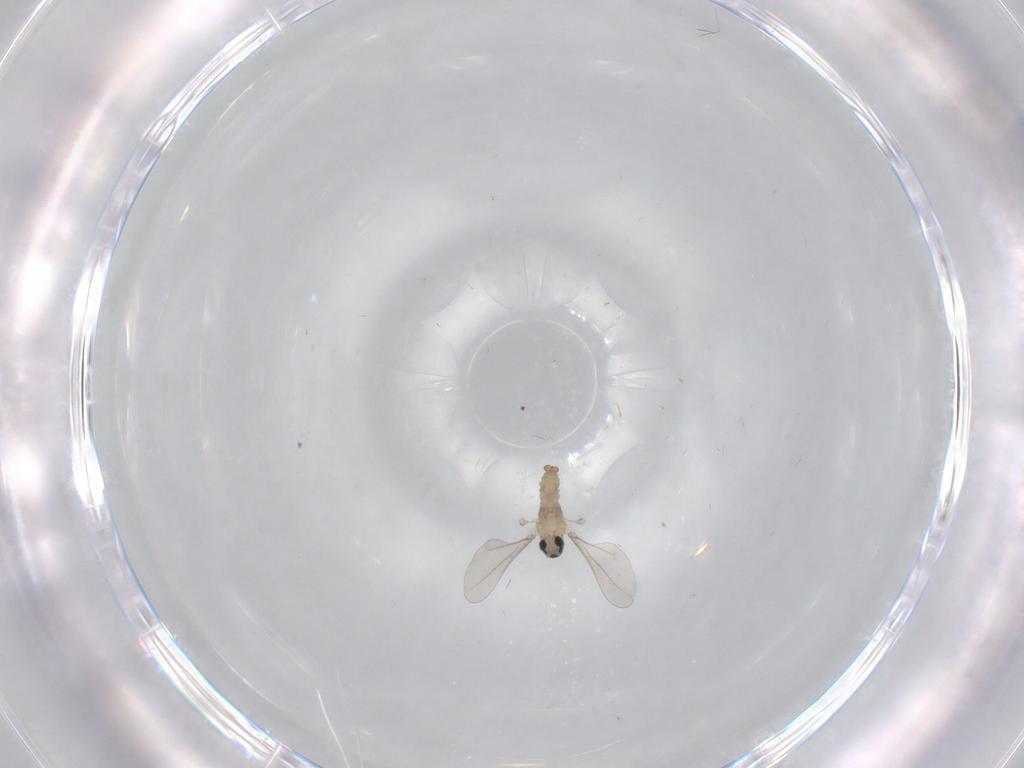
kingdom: Animalia
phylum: Arthropoda
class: Insecta
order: Diptera
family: Cecidomyiidae
